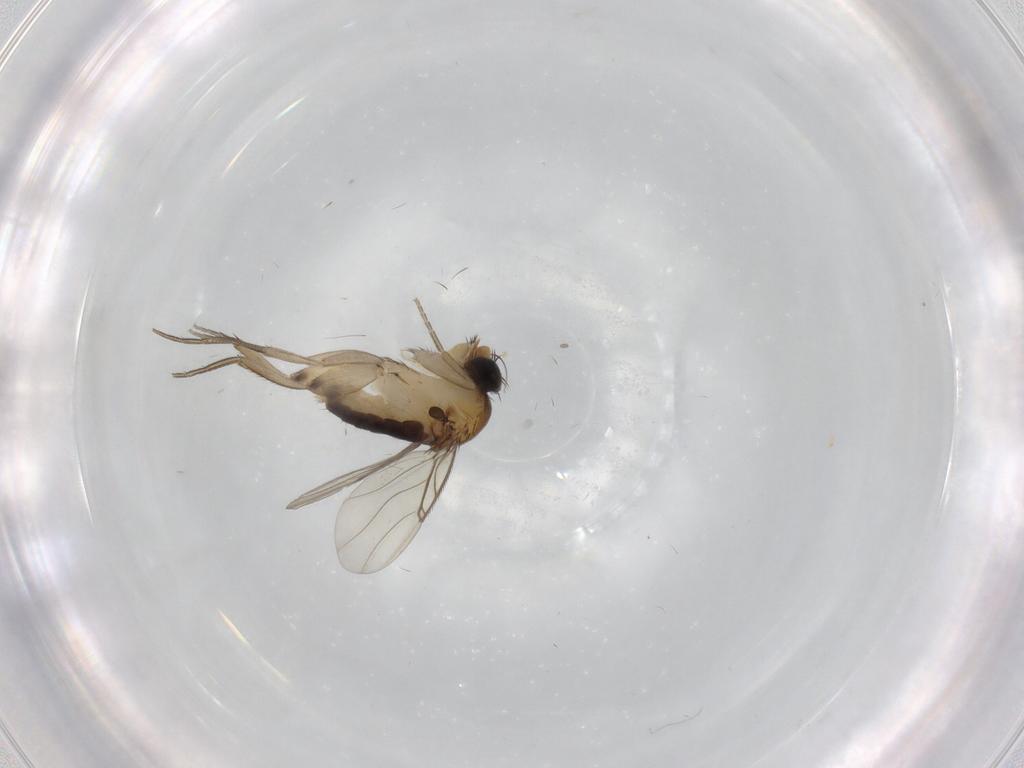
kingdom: Animalia
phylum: Arthropoda
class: Insecta
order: Diptera
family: Phoridae
